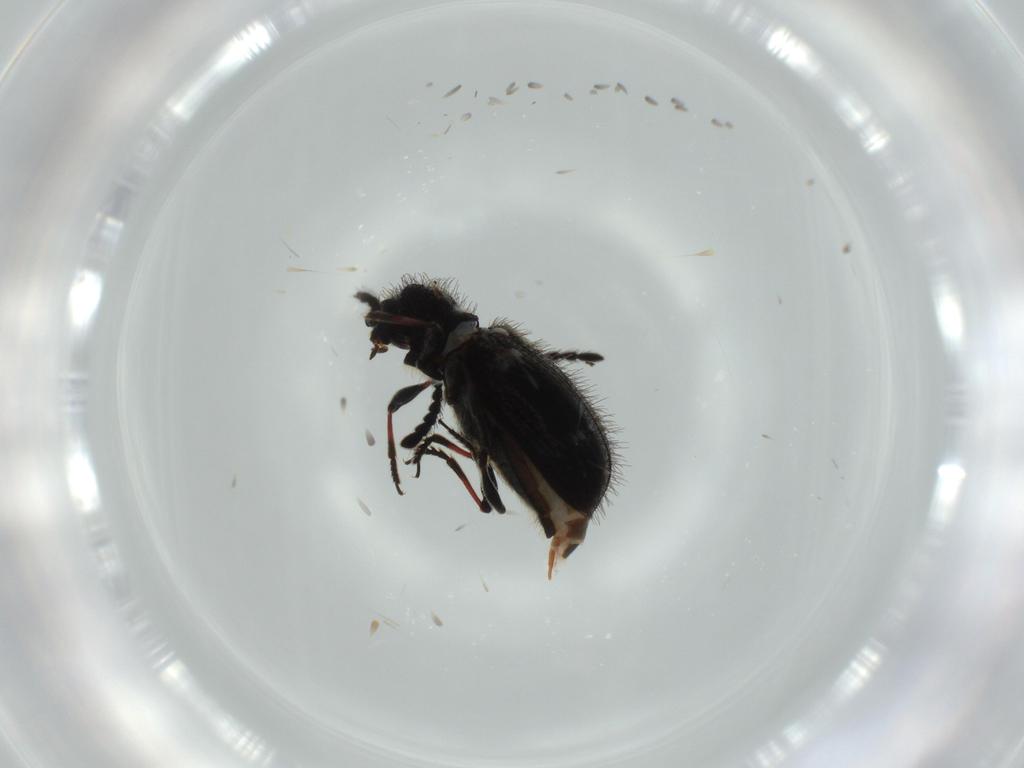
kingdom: Animalia
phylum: Arthropoda
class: Insecta
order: Coleoptera
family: Ptinidae
